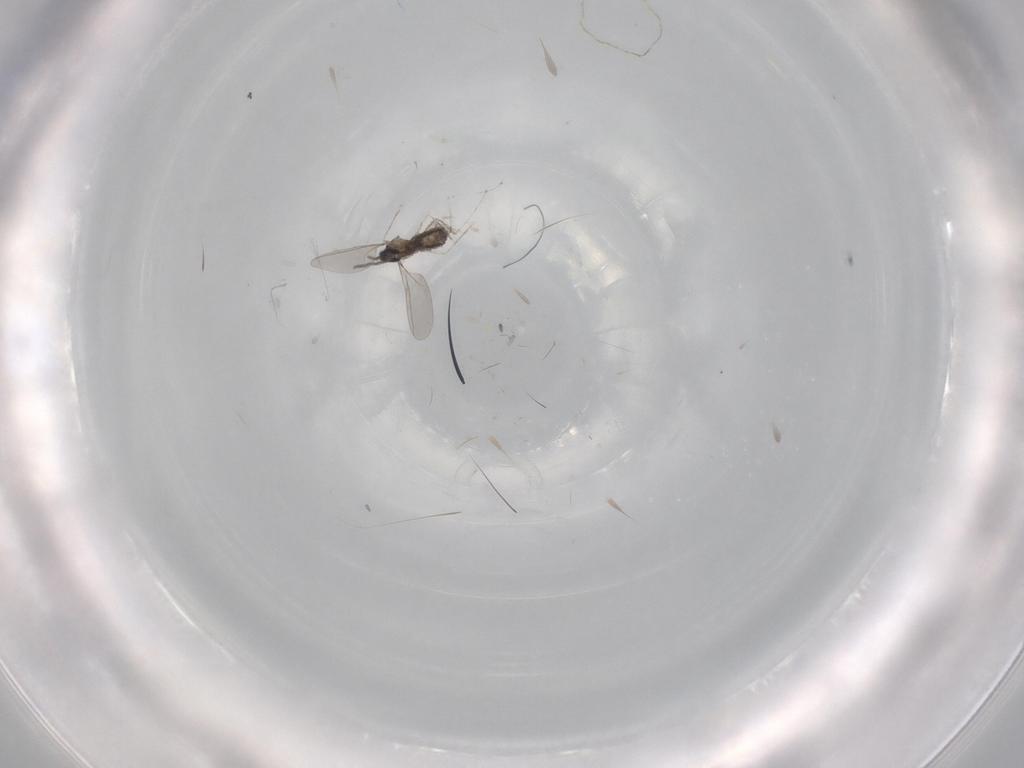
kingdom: Animalia
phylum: Arthropoda
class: Insecta
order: Diptera
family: Cecidomyiidae
